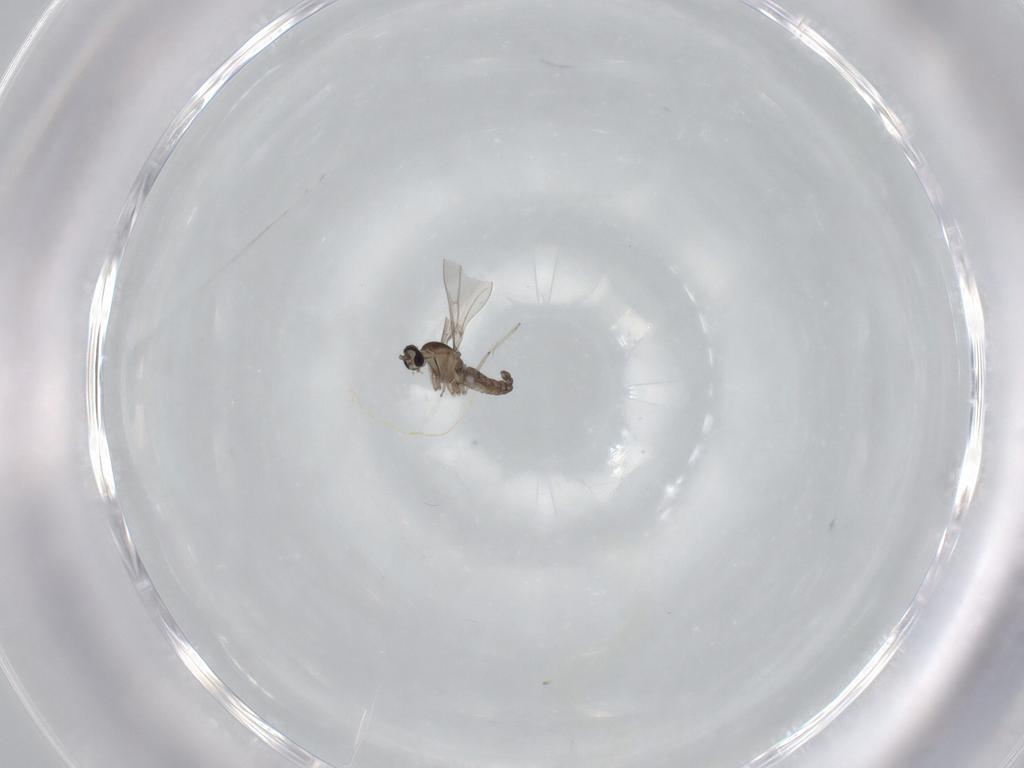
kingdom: Animalia
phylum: Arthropoda
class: Insecta
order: Diptera
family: Cecidomyiidae
